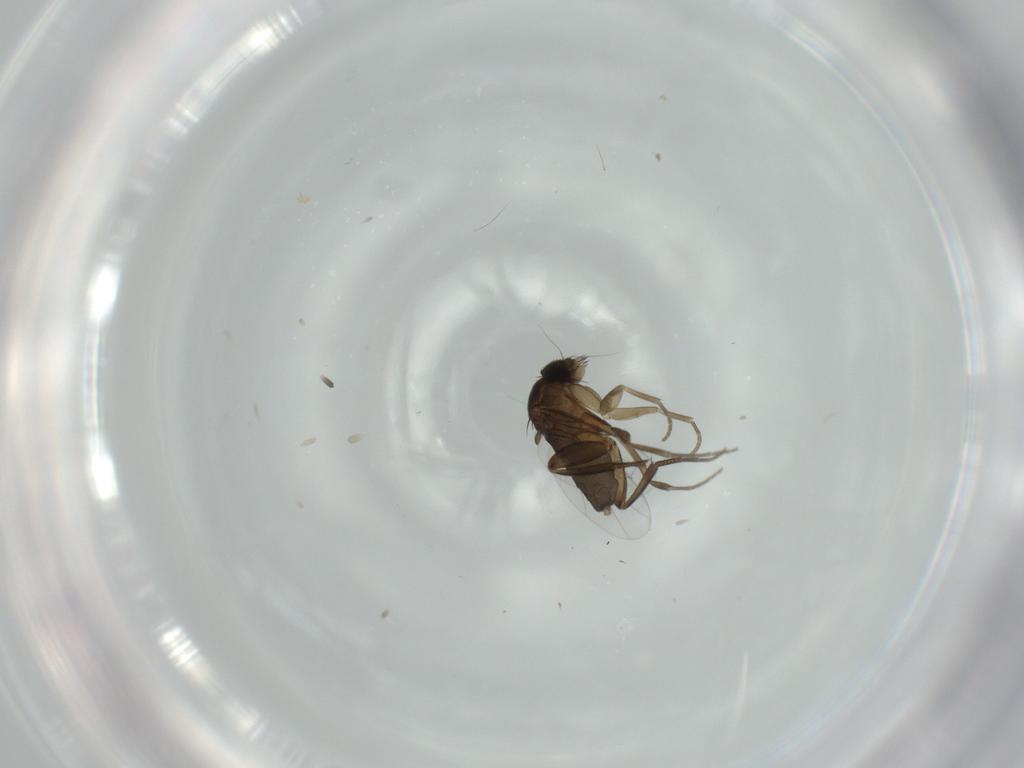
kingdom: Animalia
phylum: Arthropoda
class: Insecta
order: Diptera
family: Phoridae
